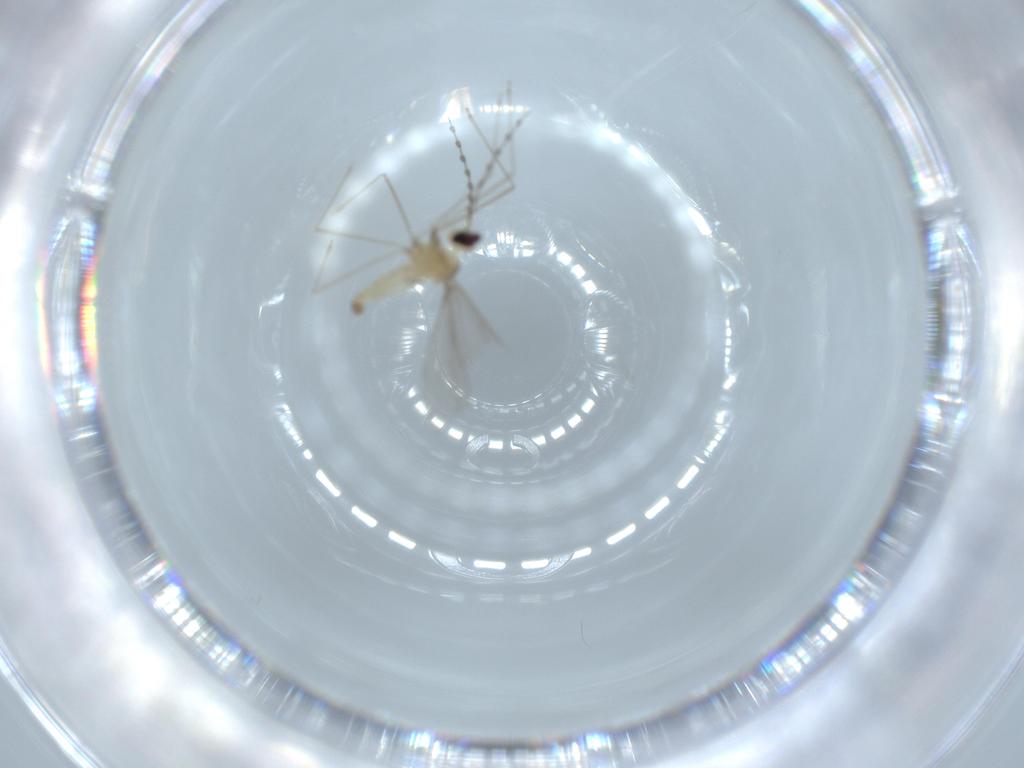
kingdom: Animalia
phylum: Arthropoda
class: Insecta
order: Diptera
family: Cecidomyiidae
